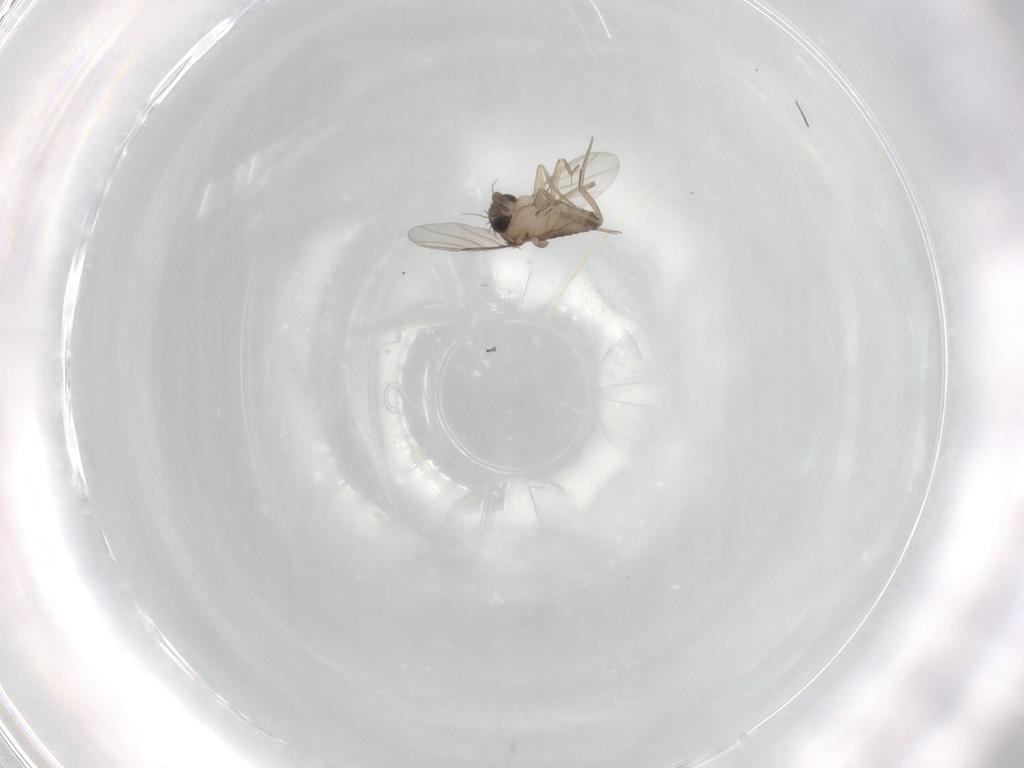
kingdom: Animalia
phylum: Arthropoda
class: Insecta
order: Diptera
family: Phoridae
